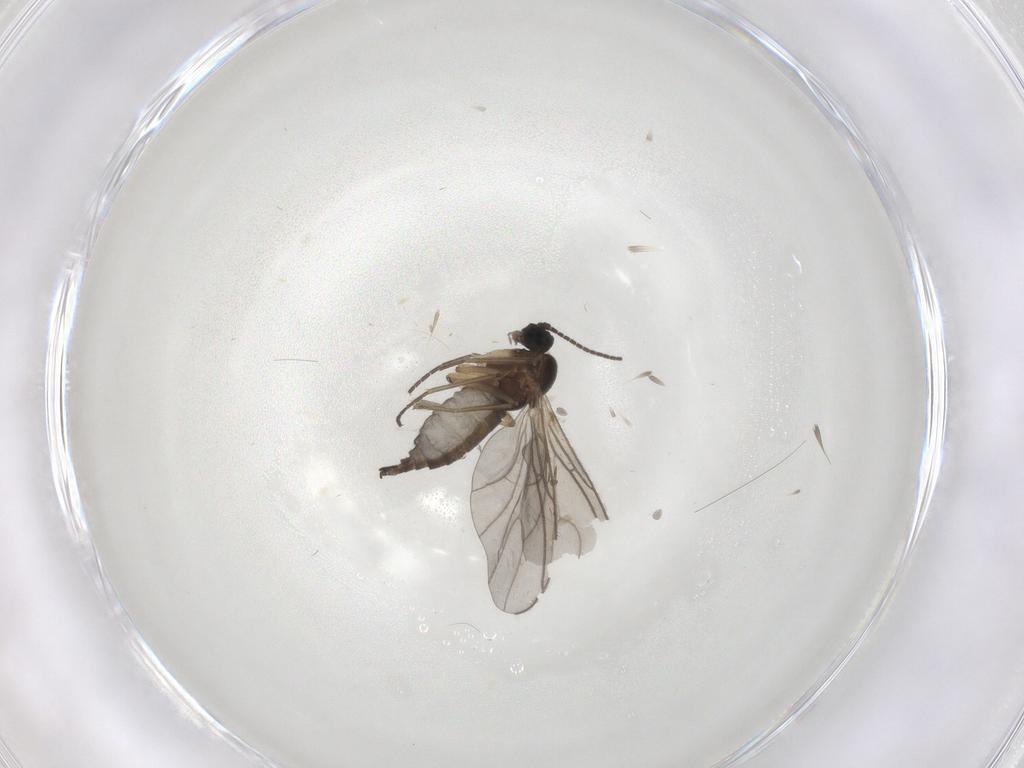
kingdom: Animalia
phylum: Arthropoda
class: Insecta
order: Diptera
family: Sciaridae
